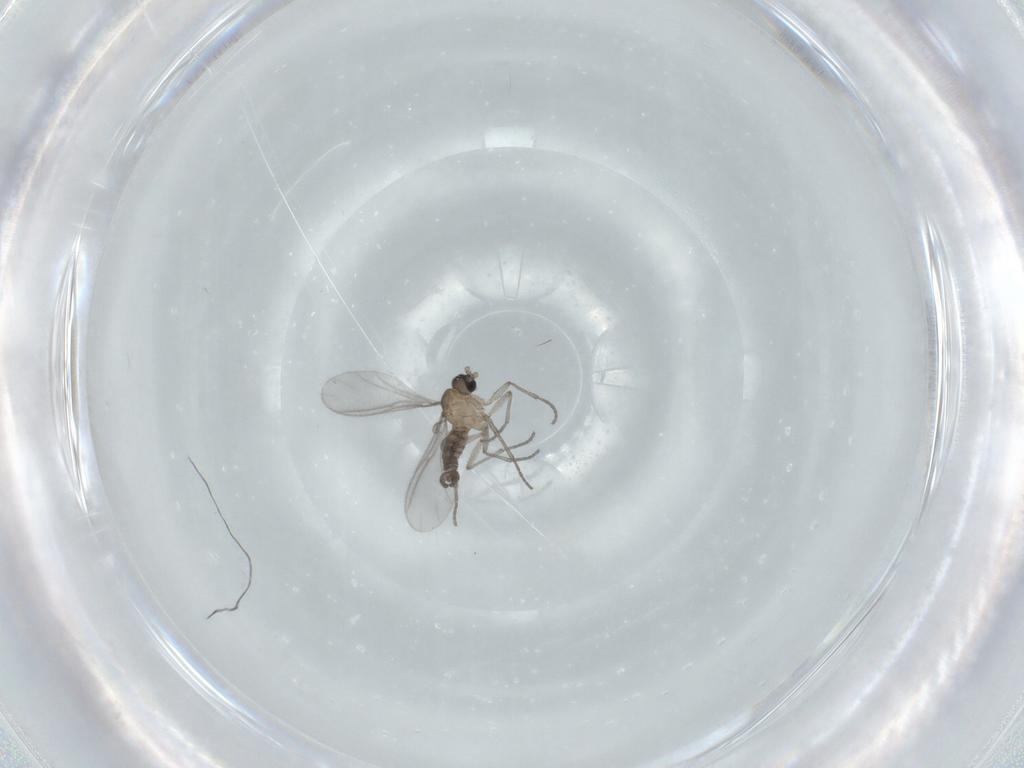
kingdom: Animalia
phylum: Arthropoda
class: Insecta
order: Diptera
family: Sciaridae
